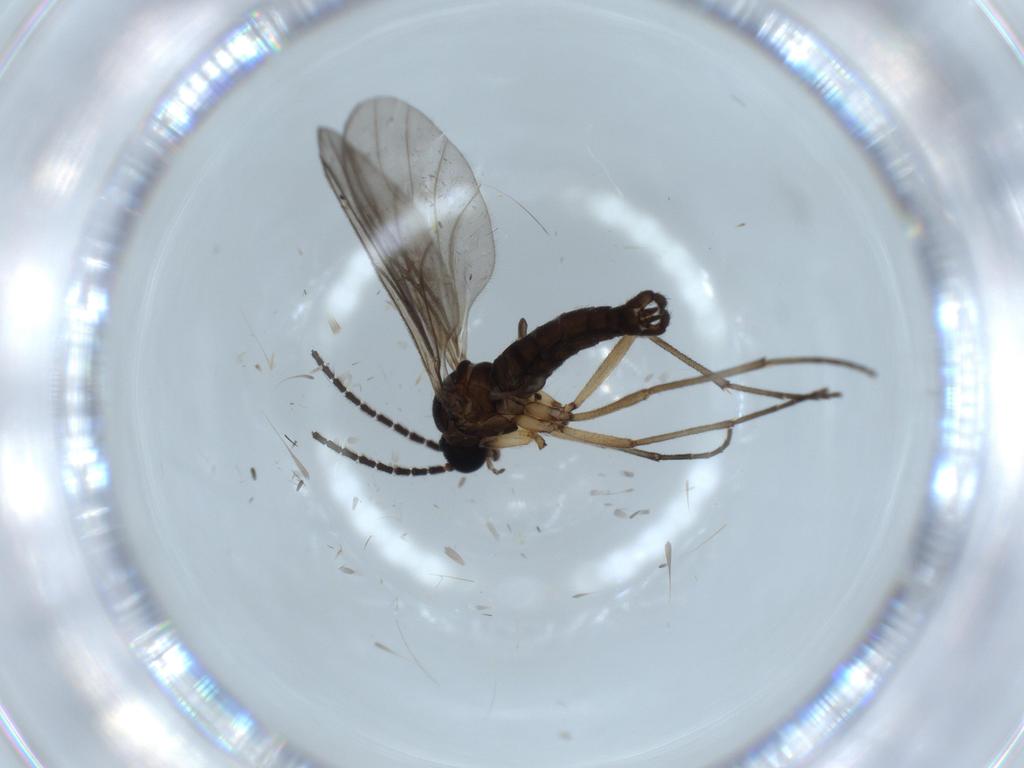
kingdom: Animalia
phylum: Arthropoda
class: Insecta
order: Diptera
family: Sciaridae
